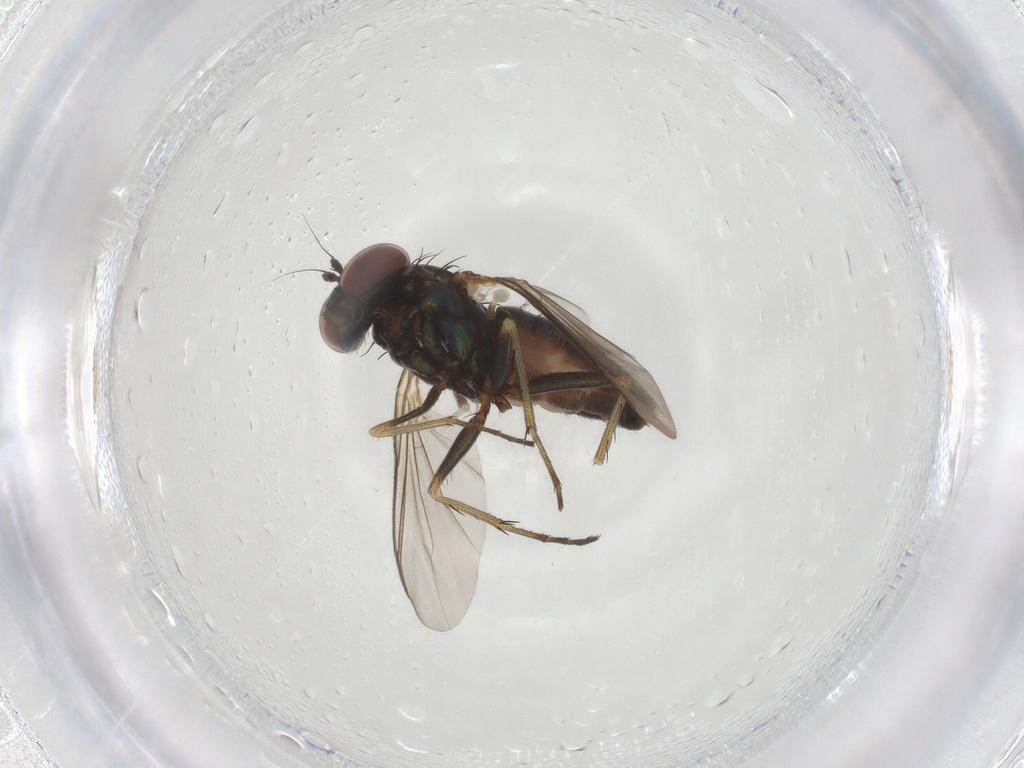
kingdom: Animalia
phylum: Arthropoda
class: Insecta
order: Diptera
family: Dolichopodidae
